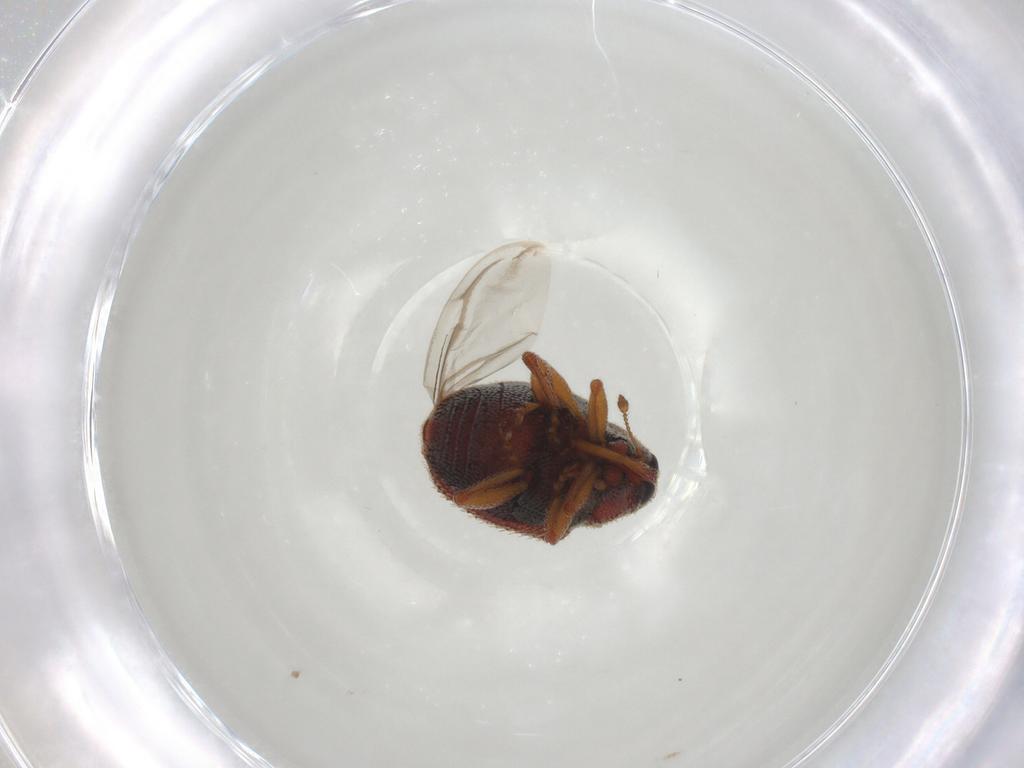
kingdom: Animalia
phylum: Arthropoda
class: Insecta
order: Coleoptera
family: Curculionidae
